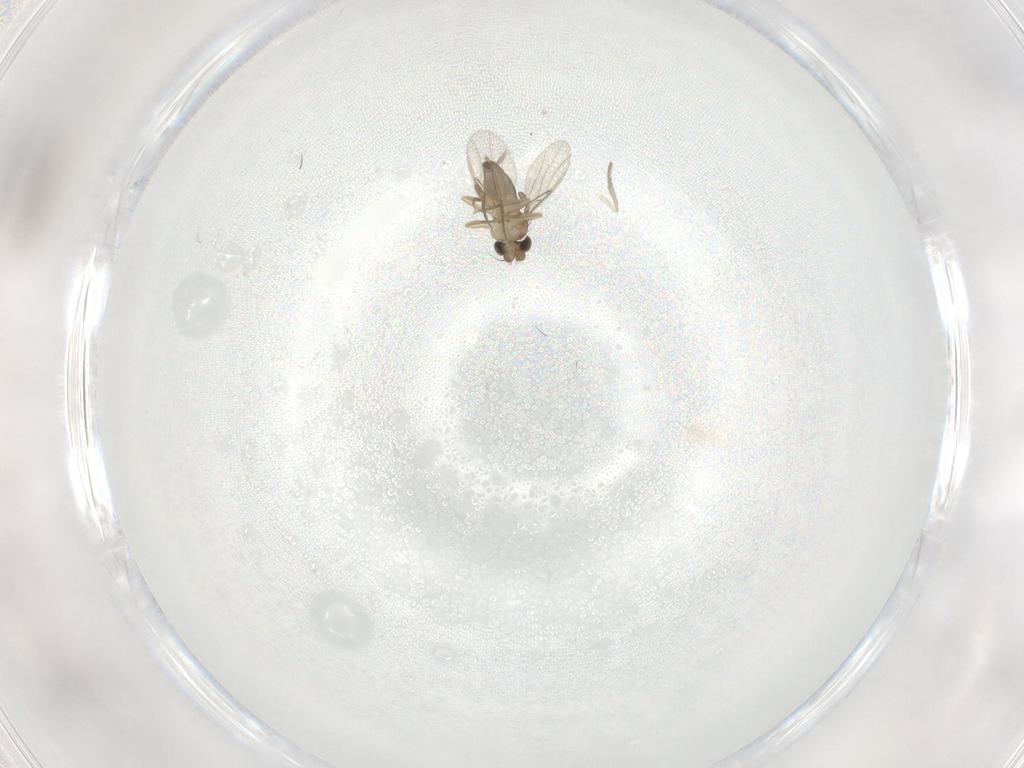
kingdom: Animalia
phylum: Arthropoda
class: Insecta
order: Diptera
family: Phoridae
